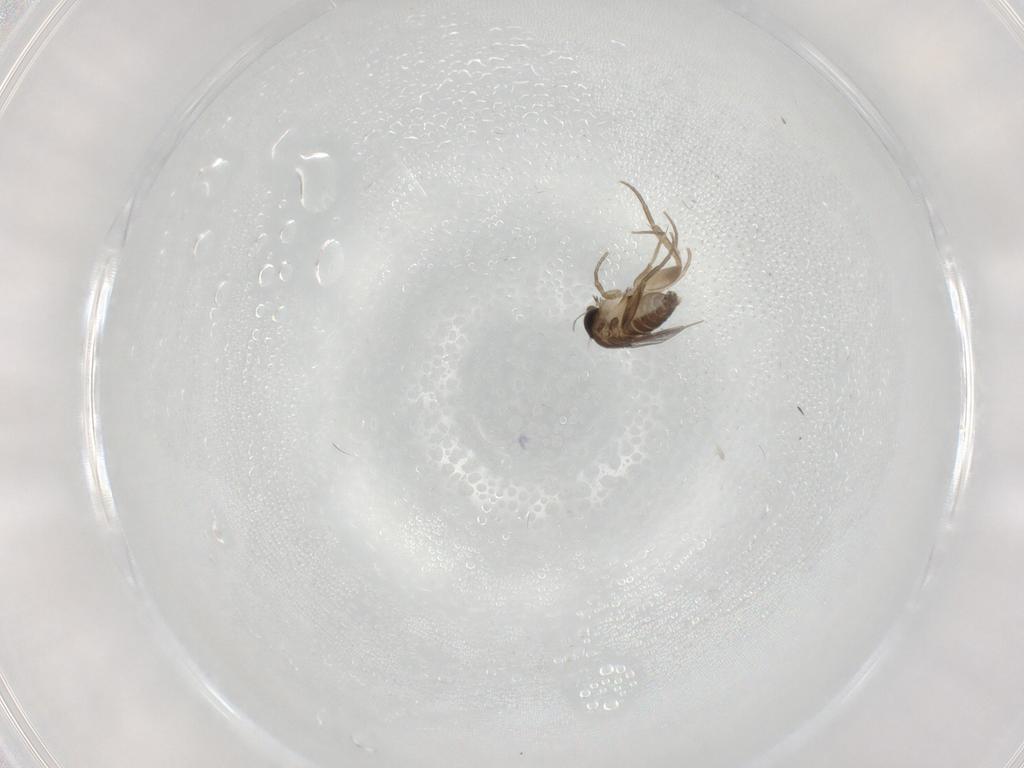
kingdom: Animalia
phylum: Arthropoda
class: Insecta
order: Diptera
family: Phoridae
